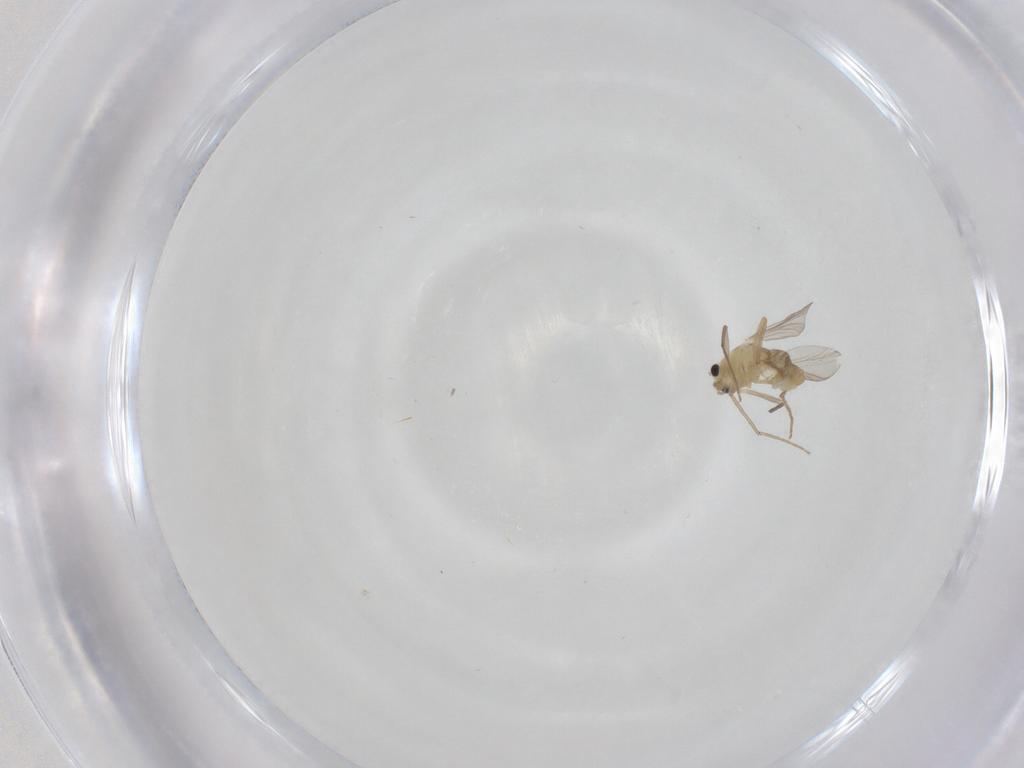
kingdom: Animalia
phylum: Arthropoda
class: Insecta
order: Diptera
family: Chironomidae
